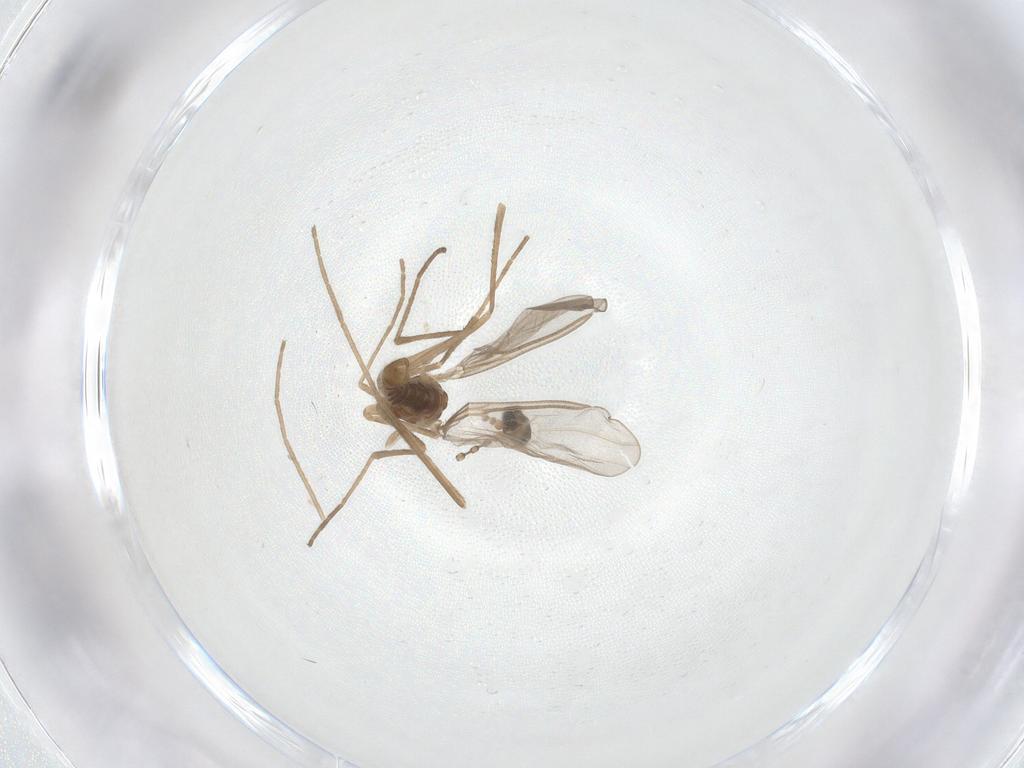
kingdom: Animalia
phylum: Arthropoda
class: Insecta
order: Diptera
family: Cecidomyiidae
